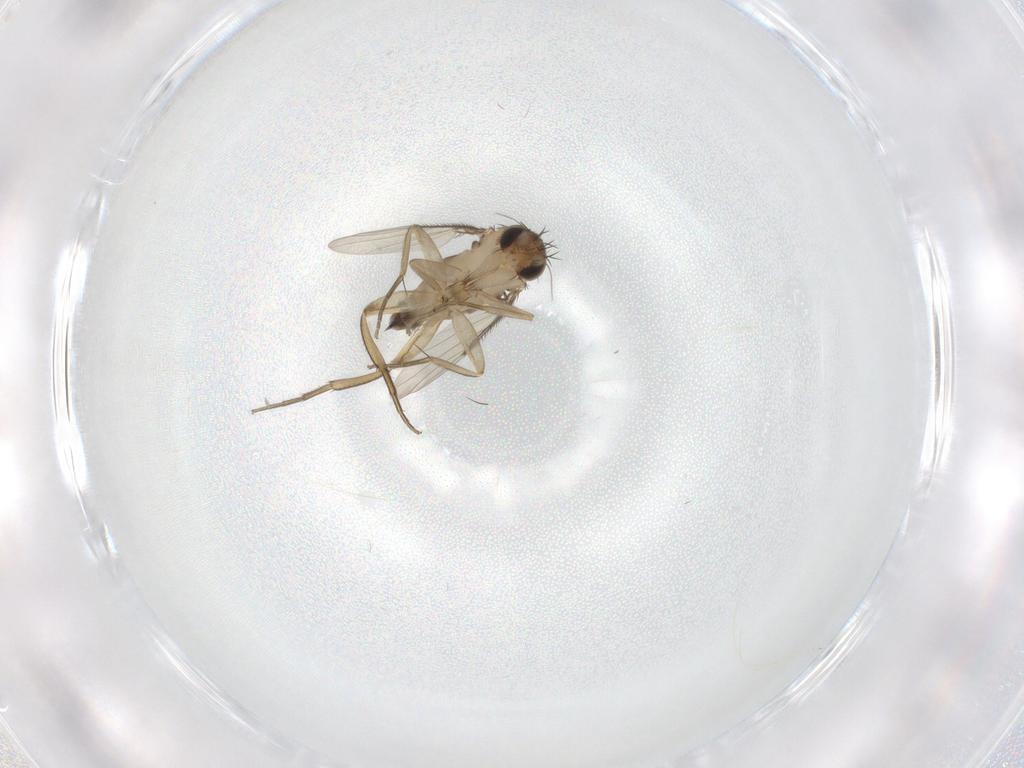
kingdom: Animalia
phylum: Arthropoda
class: Insecta
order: Diptera
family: Phoridae
